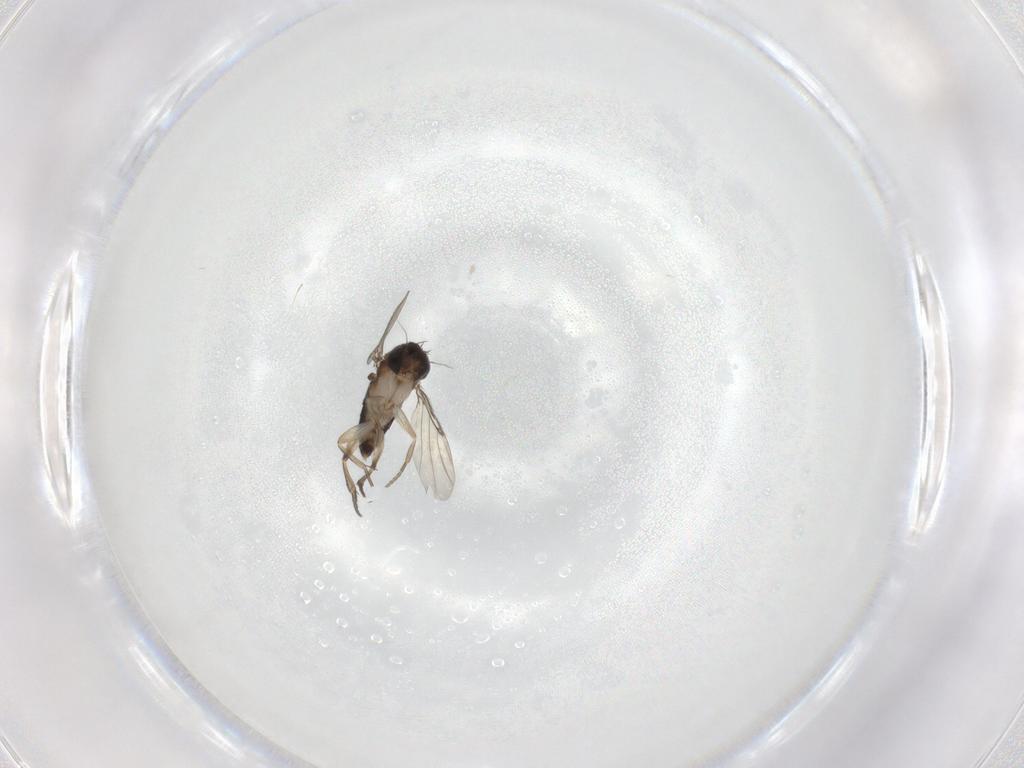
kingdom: Animalia
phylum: Arthropoda
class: Insecta
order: Diptera
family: Phoridae
